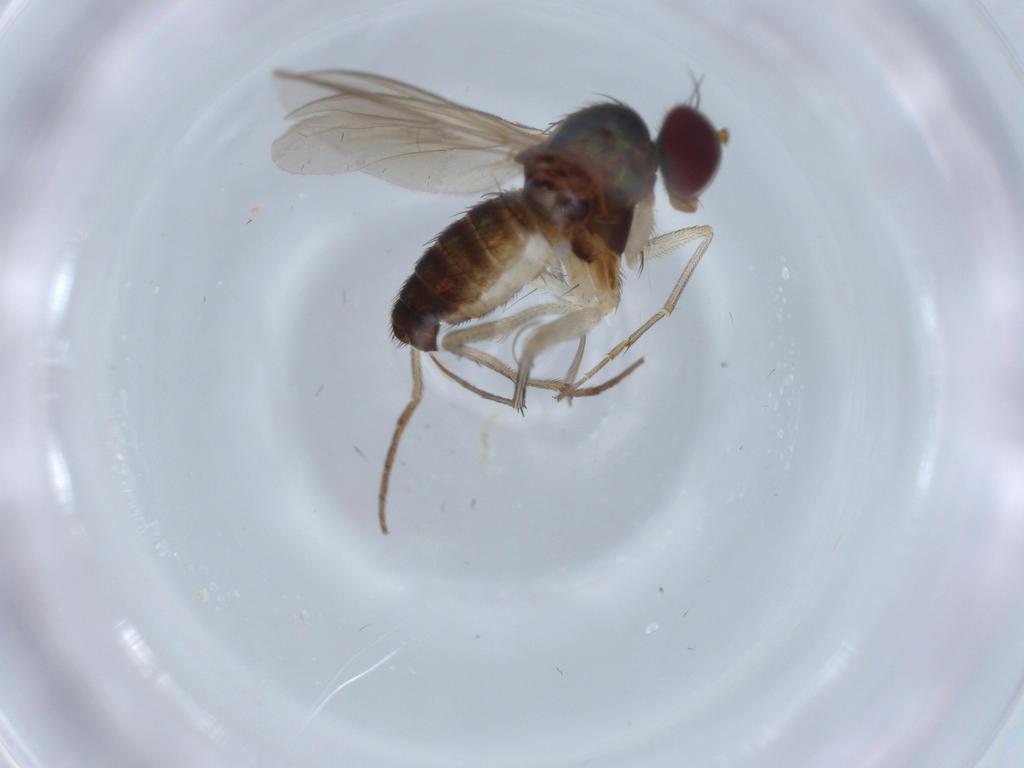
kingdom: Animalia
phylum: Arthropoda
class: Insecta
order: Diptera
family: Dolichopodidae
